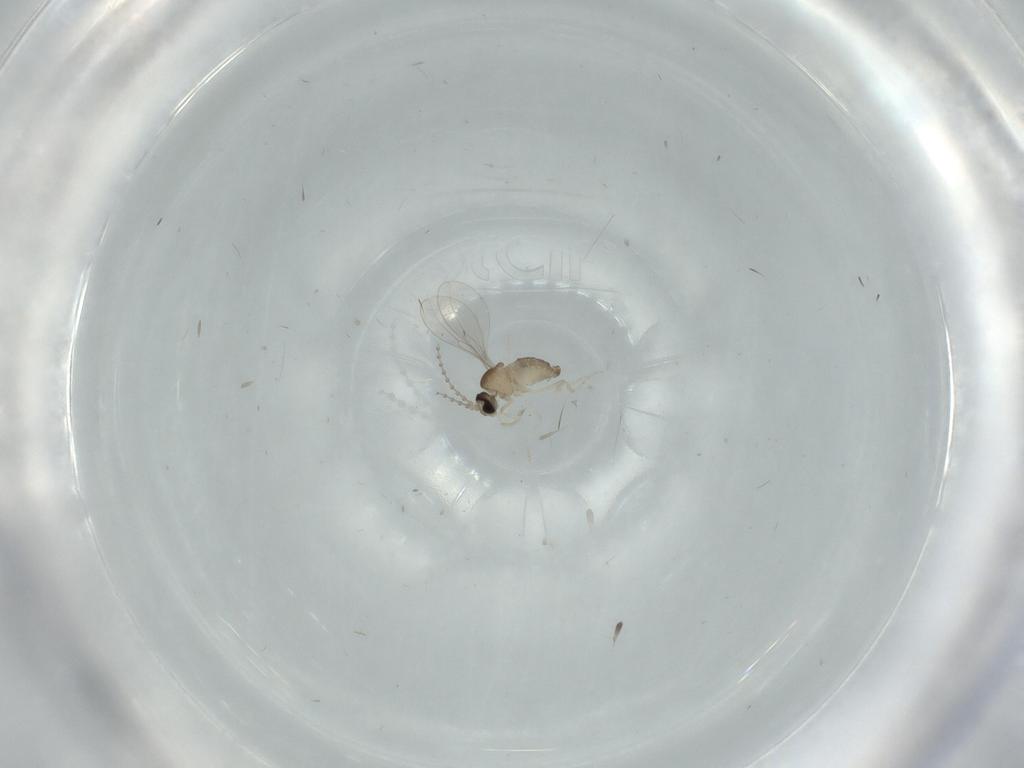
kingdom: Animalia
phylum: Arthropoda
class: Insecta
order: Diptera
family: Cecidomyiidae
